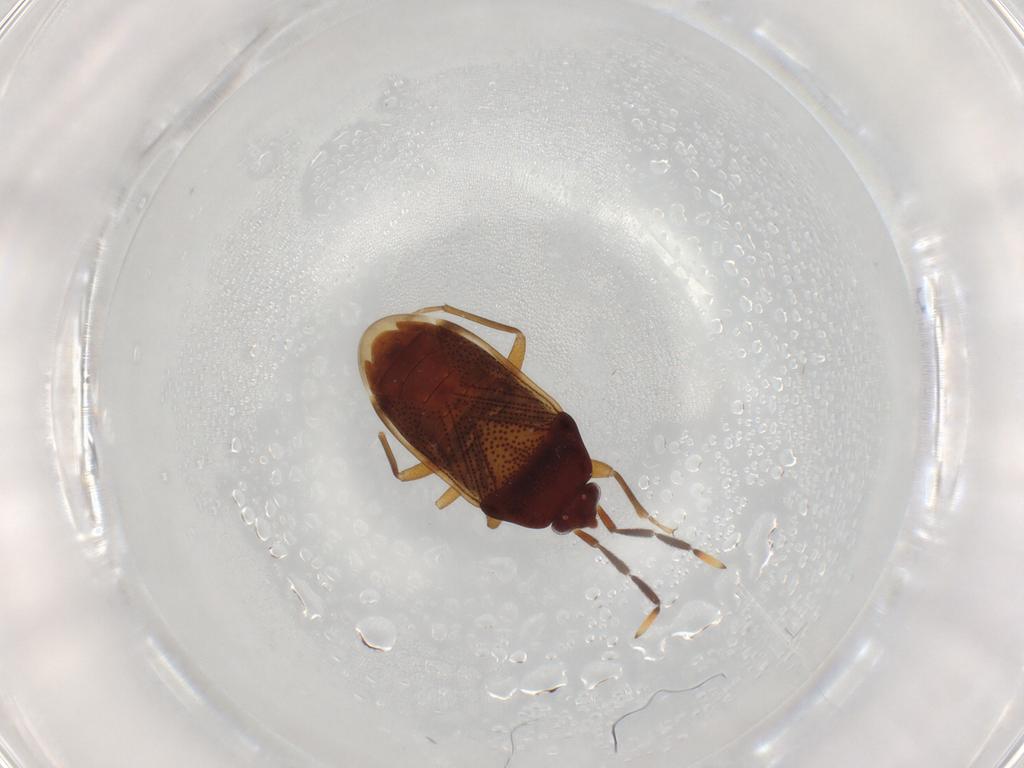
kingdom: Animalia
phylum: Arthropoda
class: Insecta
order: Hemiptera
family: Rhyparochromidae
